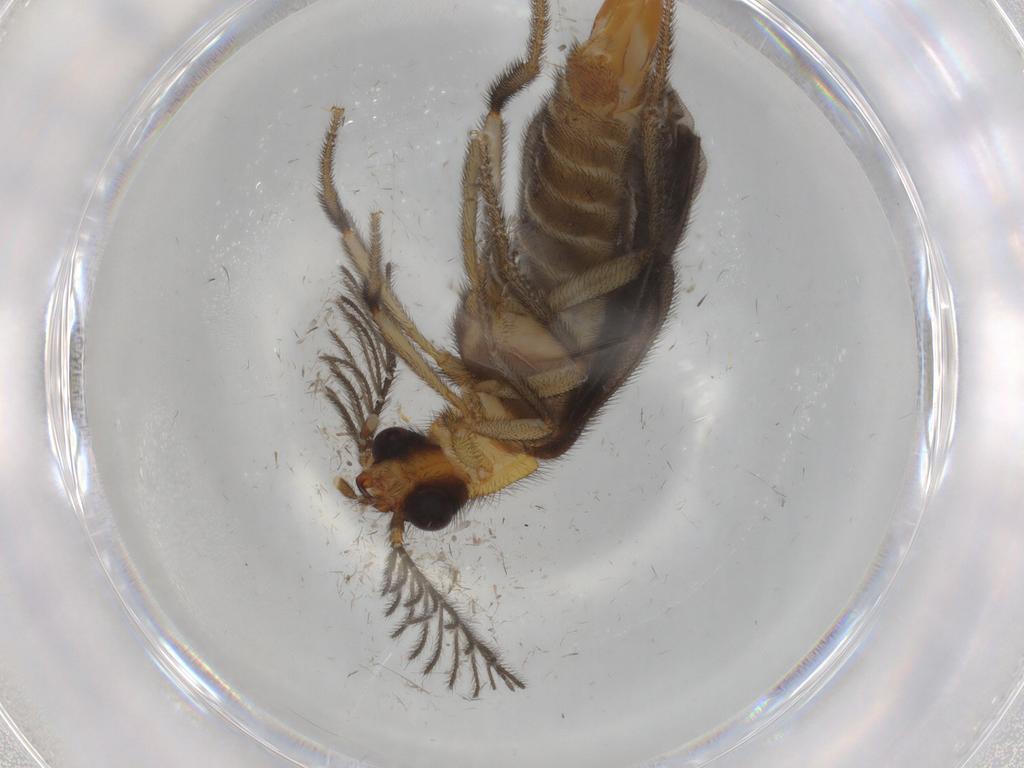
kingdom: Animalia
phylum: Arthropoda
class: Insecta
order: Coleoptera
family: Chrysomelidae
